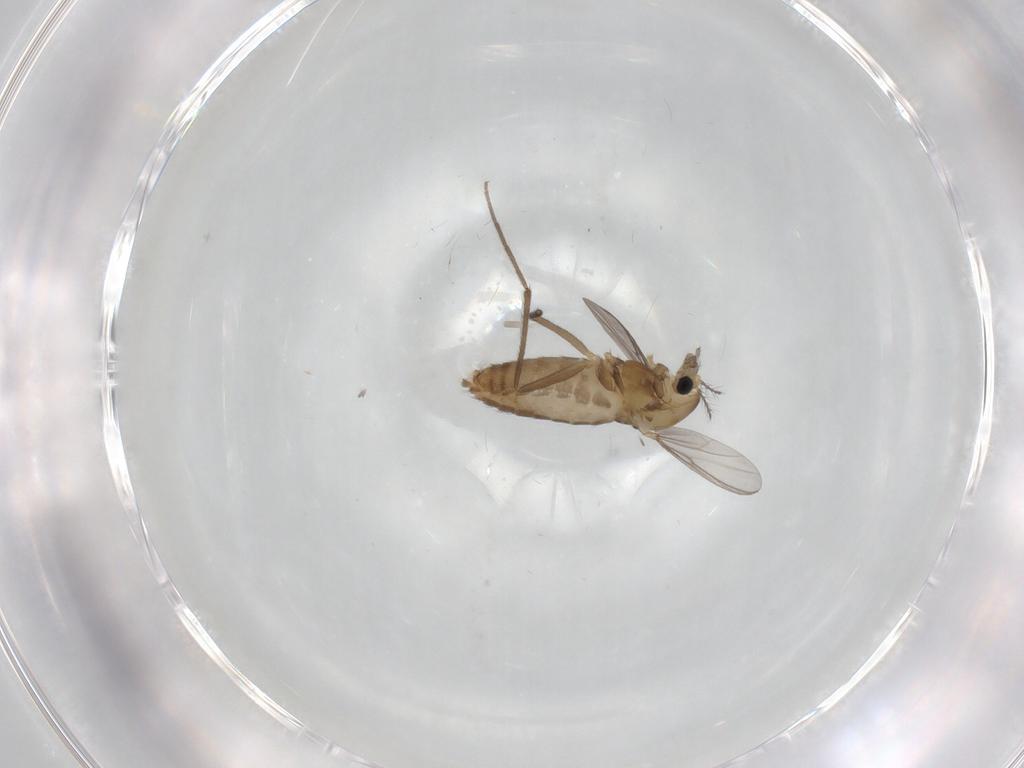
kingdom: Animalia
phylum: Arthropoda
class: Insecta
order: Diptera
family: Chironomidae
